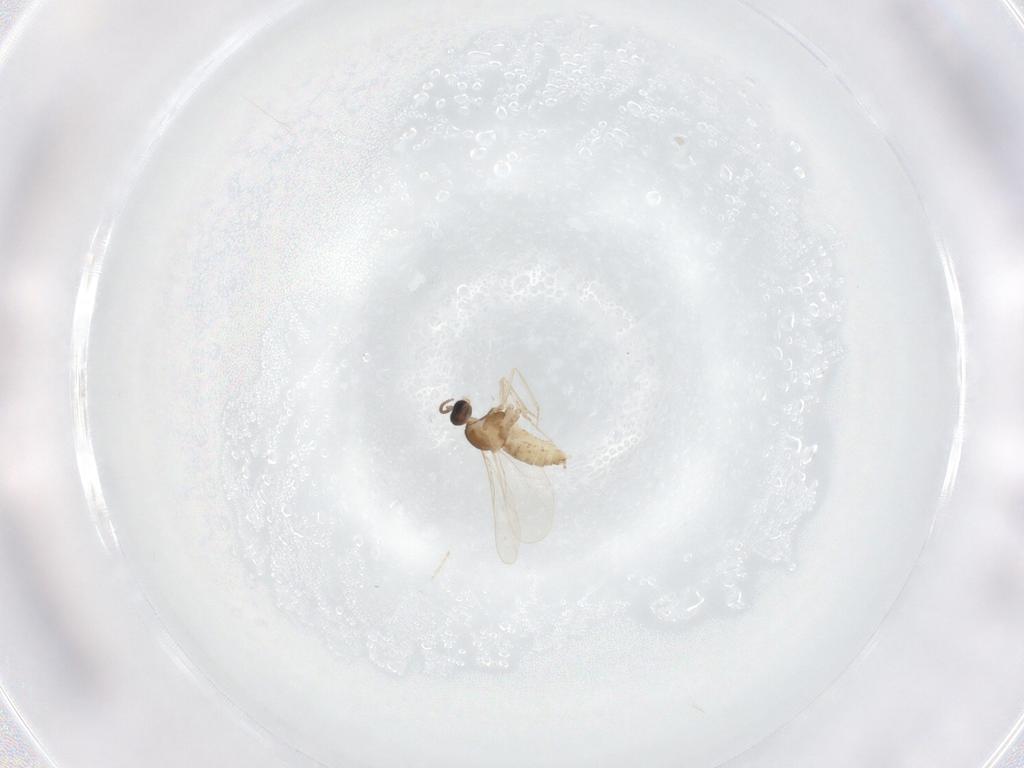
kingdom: Animalia
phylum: Arthropoda
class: Insecta
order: Diptera
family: Cecidomyiidae
